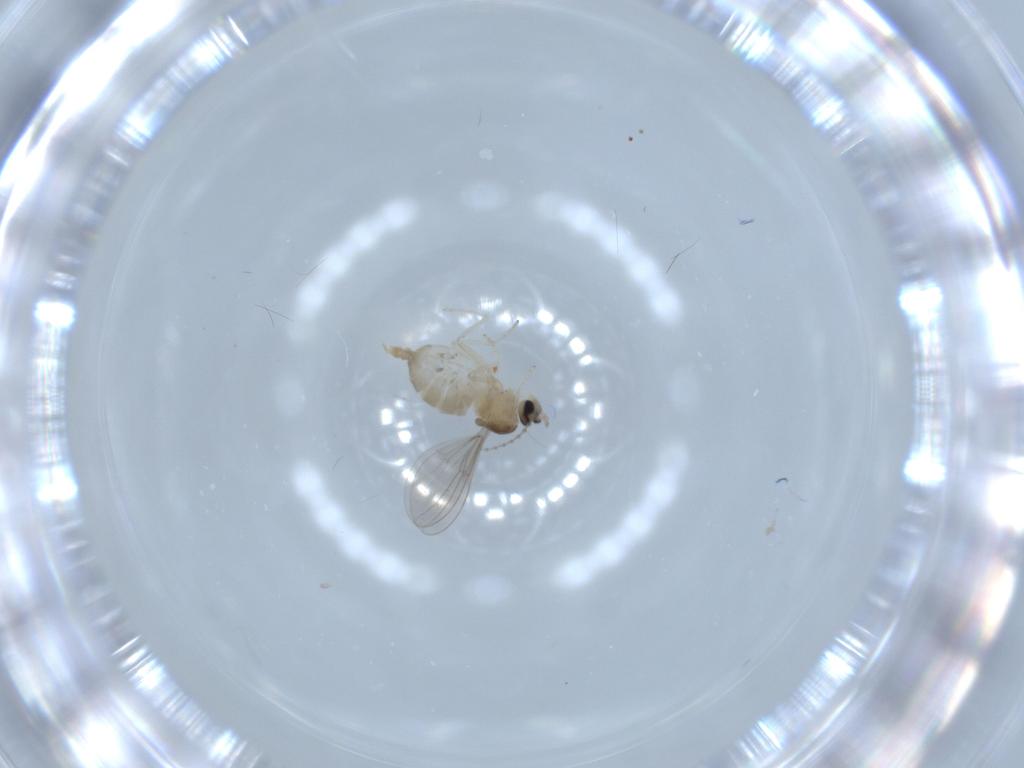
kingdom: Animalia
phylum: Arthropoda
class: Insecta
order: Diptera
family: Cecidomyiidae
